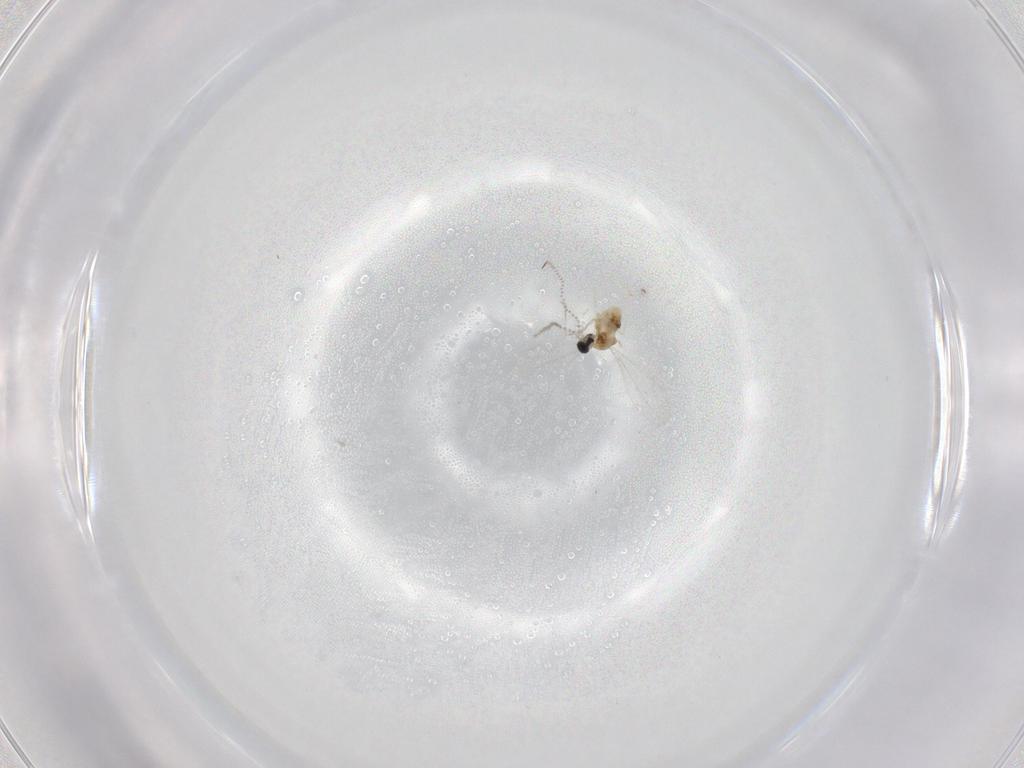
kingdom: Animalia
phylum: Arthropoda
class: Insecta
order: Diptera
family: Cecidomyiidae
